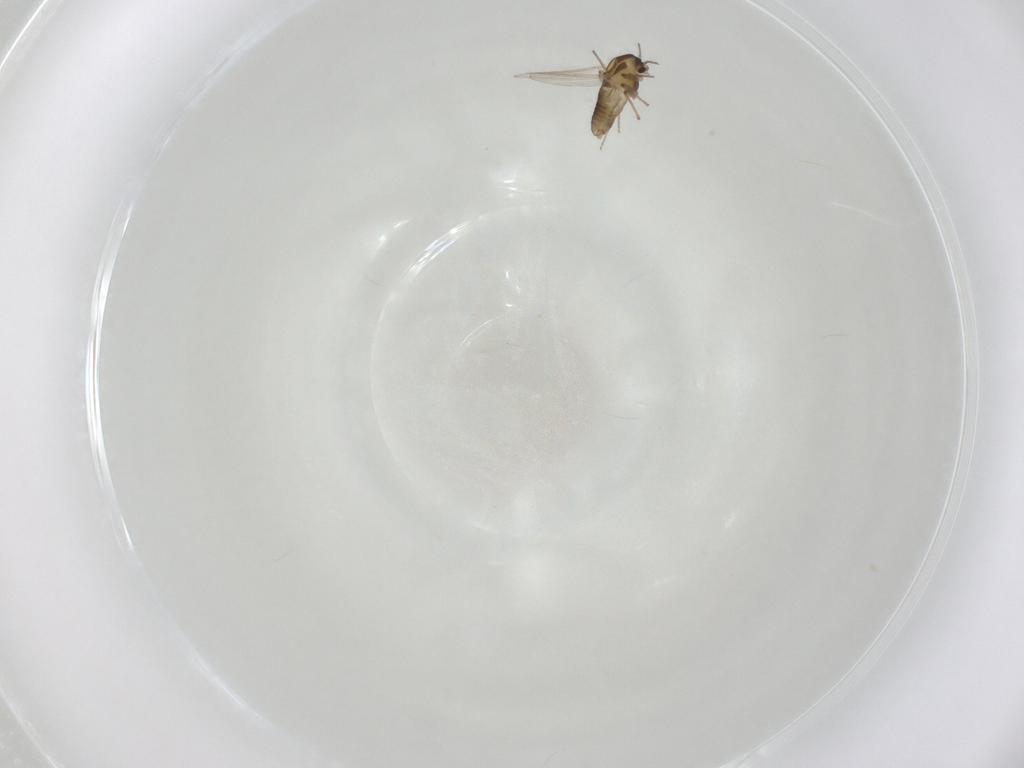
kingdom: Animalia
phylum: Arthropoda
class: Insecta
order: Diptera
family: Chironomidae
